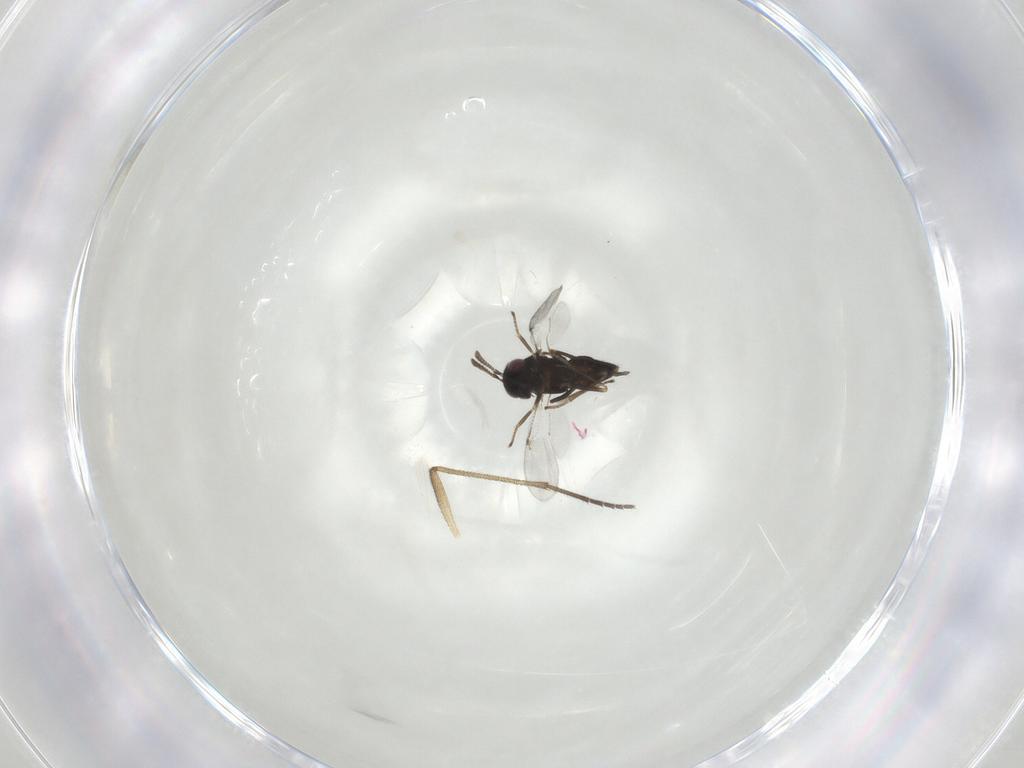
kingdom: Animalia
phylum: Arthropoda
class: Insecta
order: Hymenoptera
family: Encyrtidae
